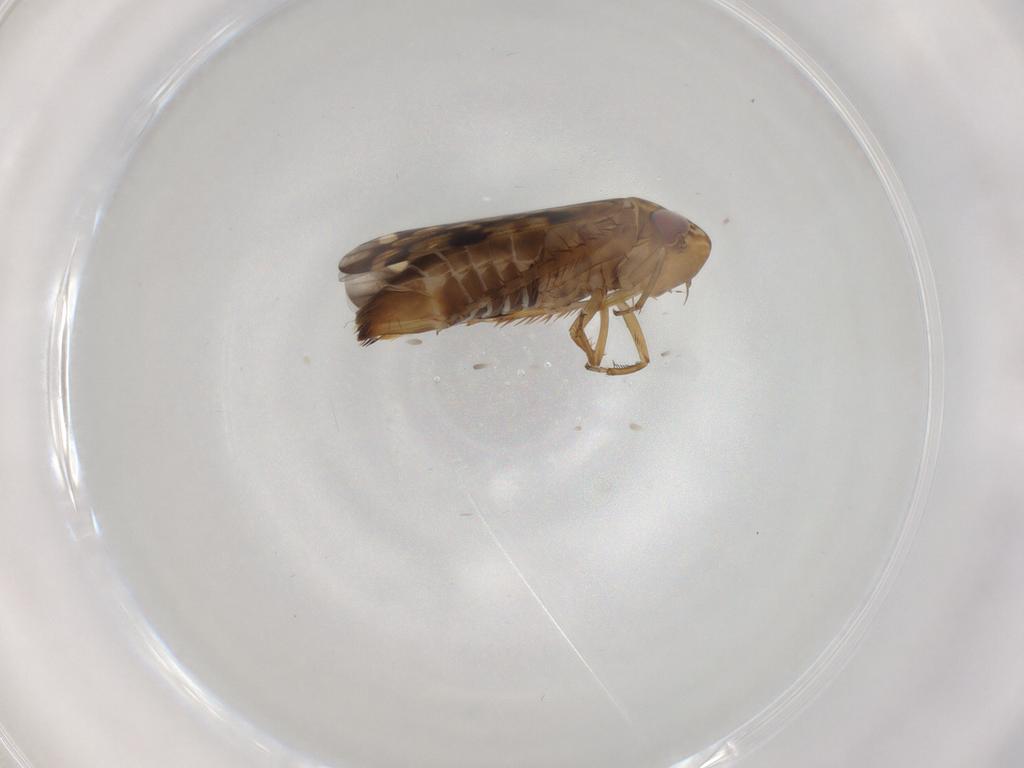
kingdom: Animalia
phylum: Arthropoda
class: Insecta
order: Hemiptera
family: Cicadellidae
